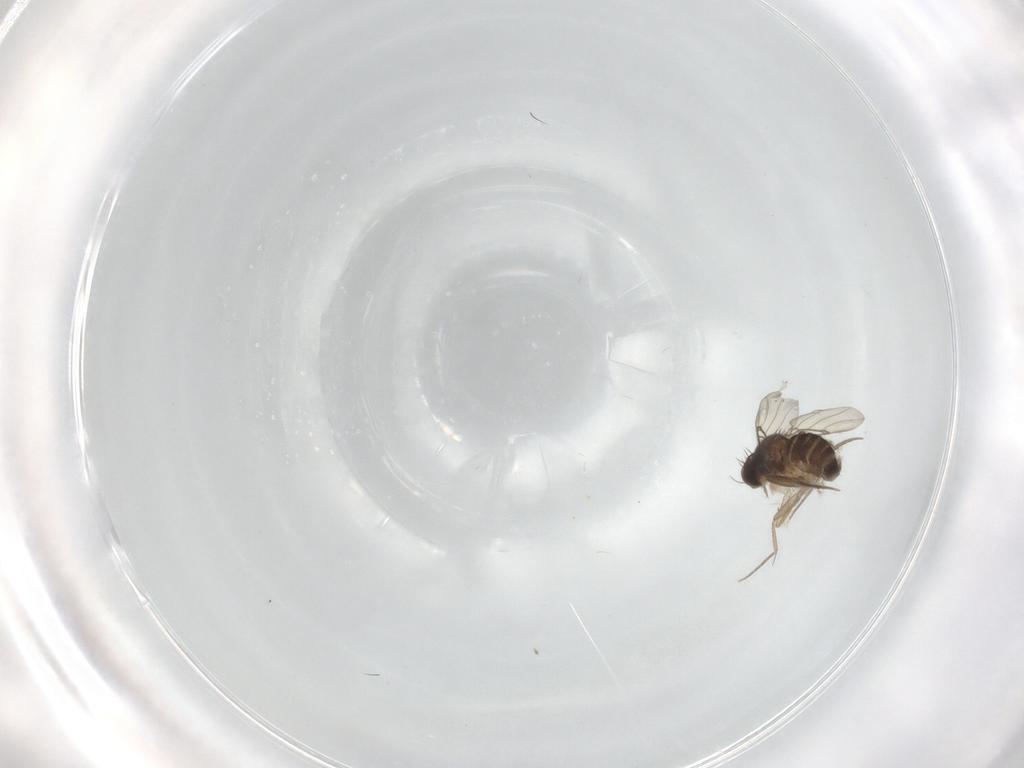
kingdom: Animalia
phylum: Arthropoda
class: Insecta
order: Diptera
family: Phoridae
